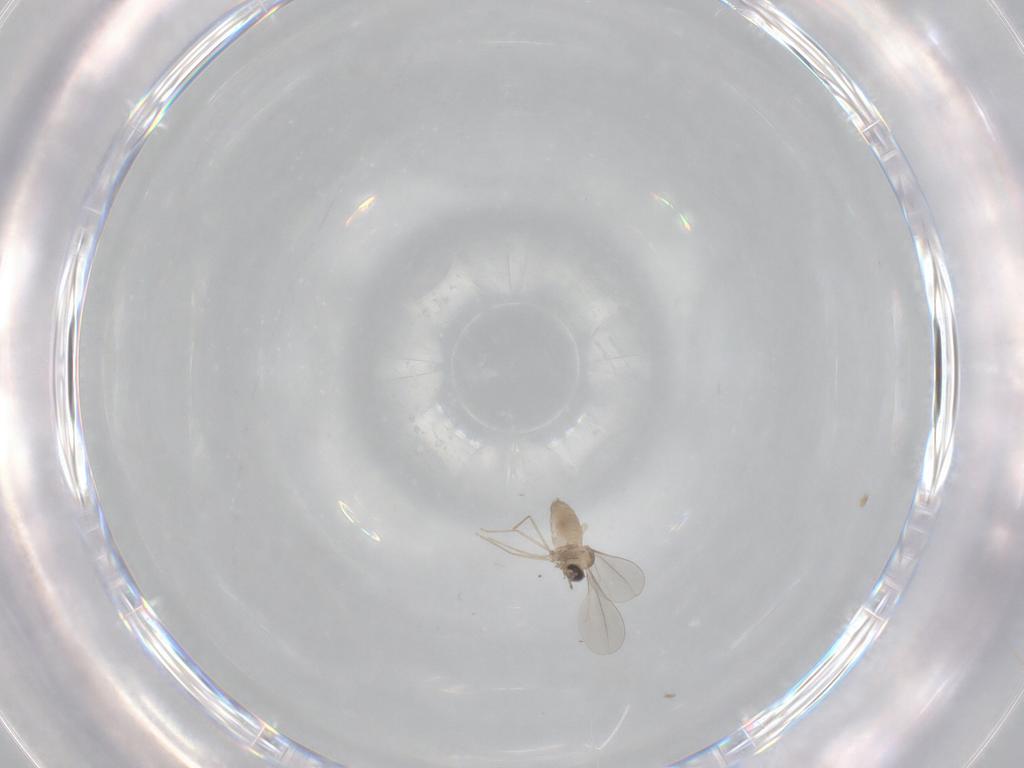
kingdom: Animalia
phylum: Arthropoda
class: Insecta
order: Diptera
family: Cecidomyiidae
